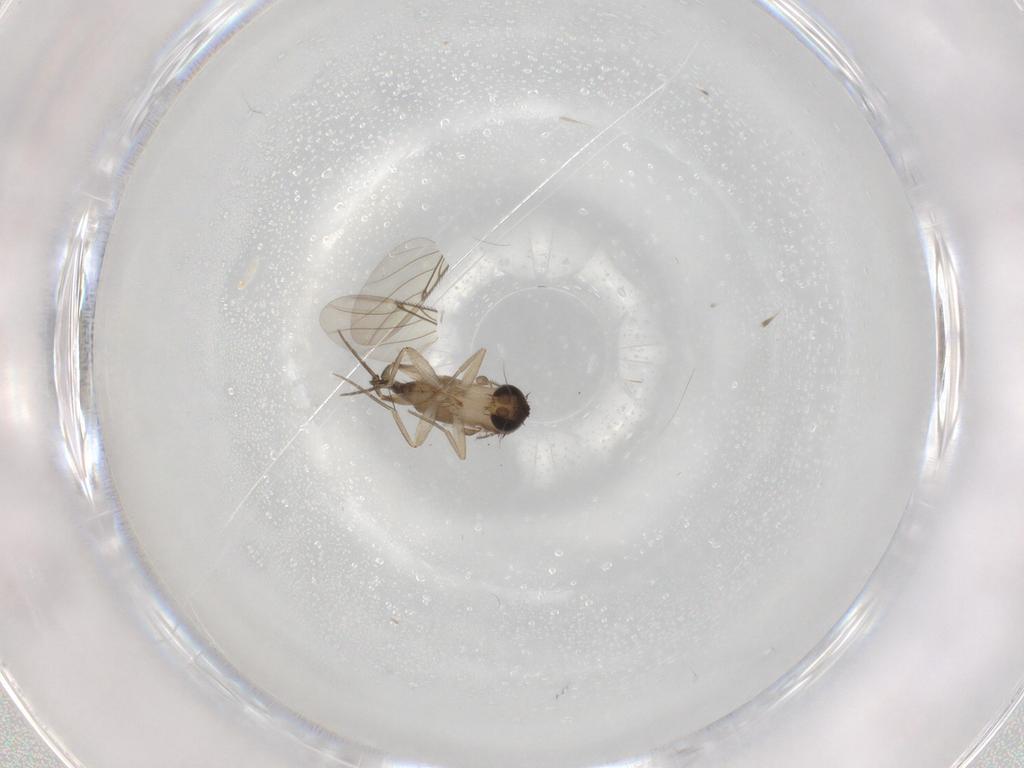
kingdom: Animalia
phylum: Arthropoda
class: Insecta
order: Diptera
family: Phoridae
